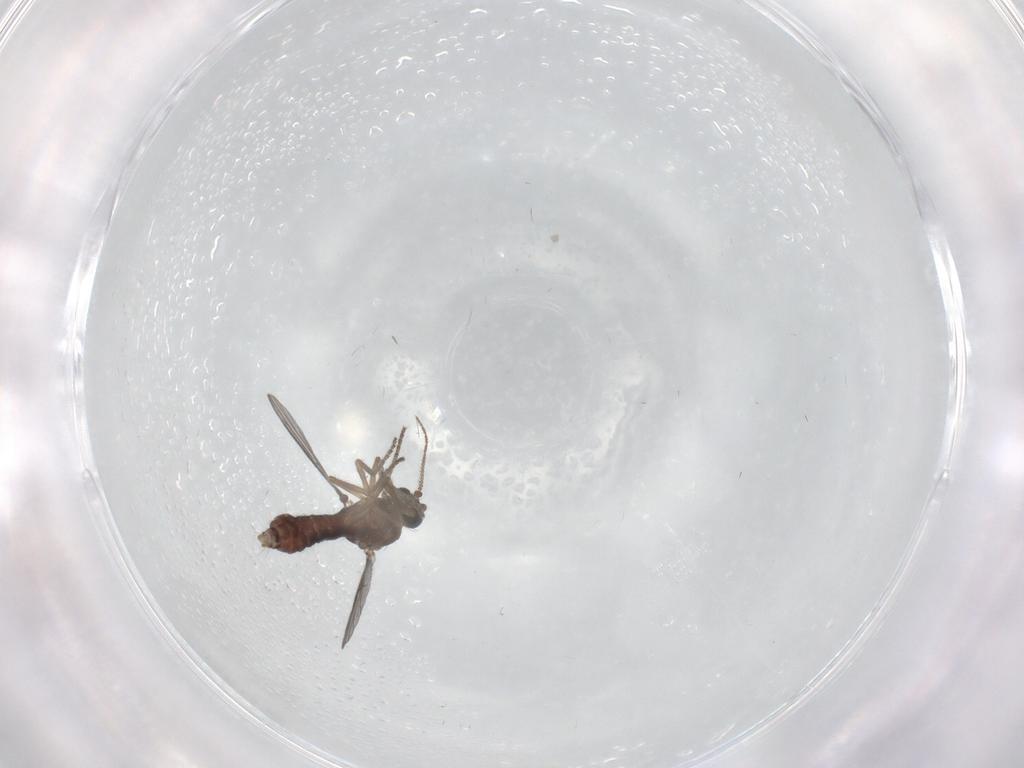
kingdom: Animalia
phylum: Arthropoda
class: Insecta
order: Diptera
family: Ceratopogonidae
